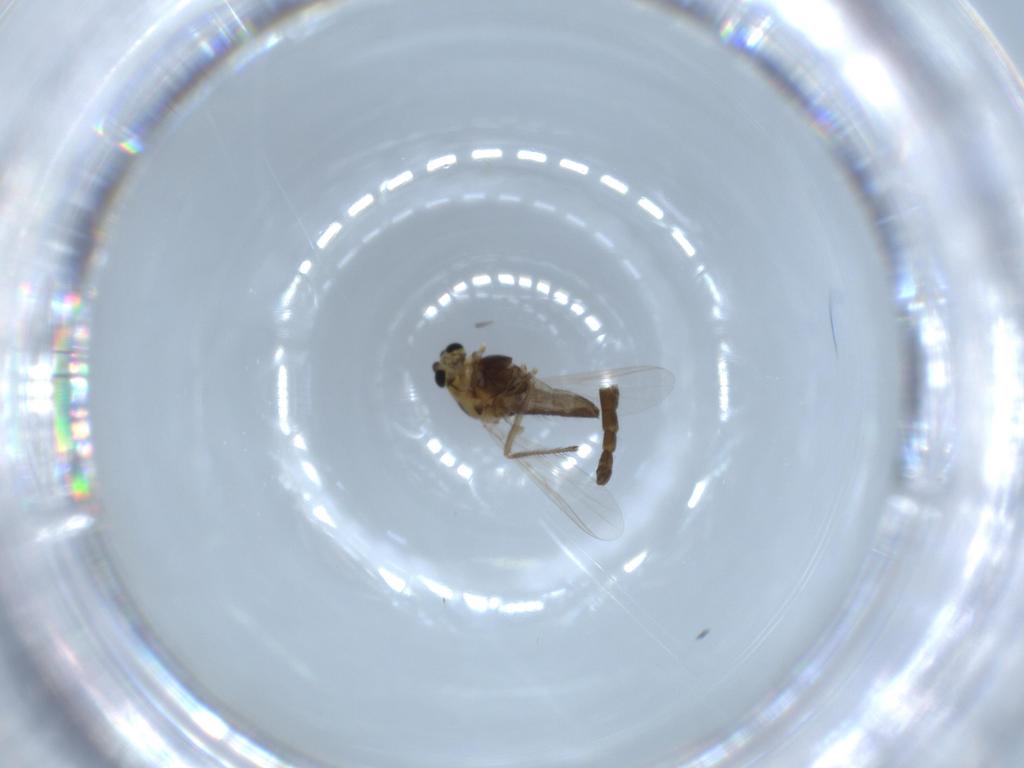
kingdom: Animalia
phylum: Arthropoda
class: Insecta
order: Diptera
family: Chironomidae
